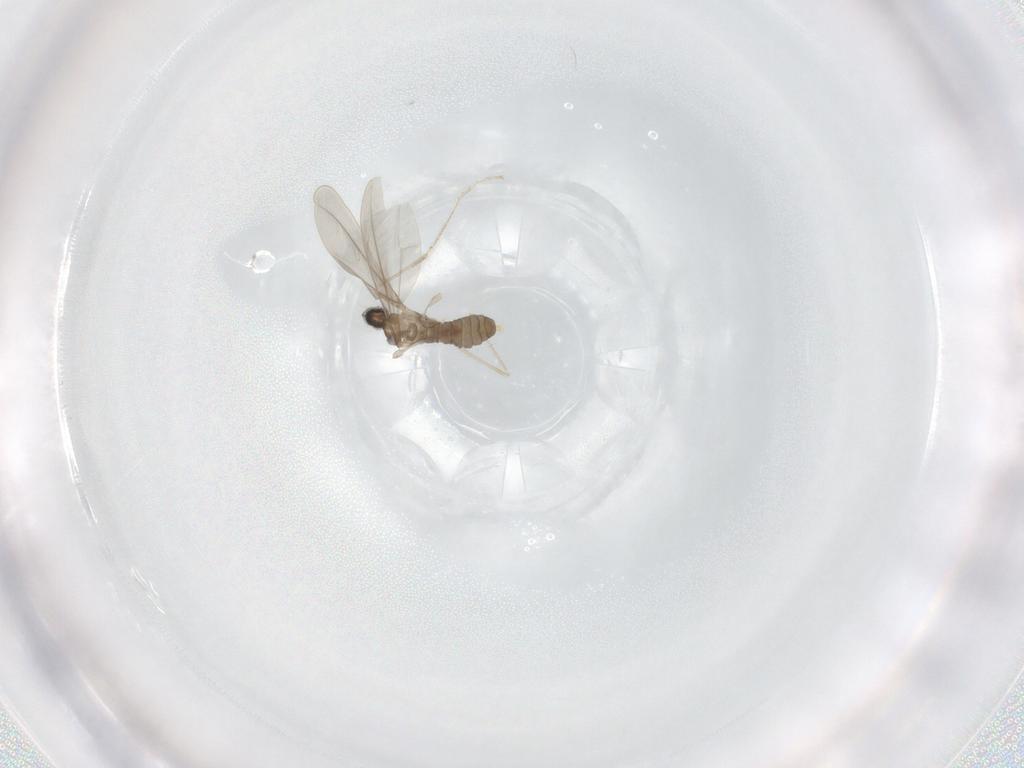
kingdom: Animalia
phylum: Arthropoda
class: Insecta
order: Diptera
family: Cecidomyiidae
